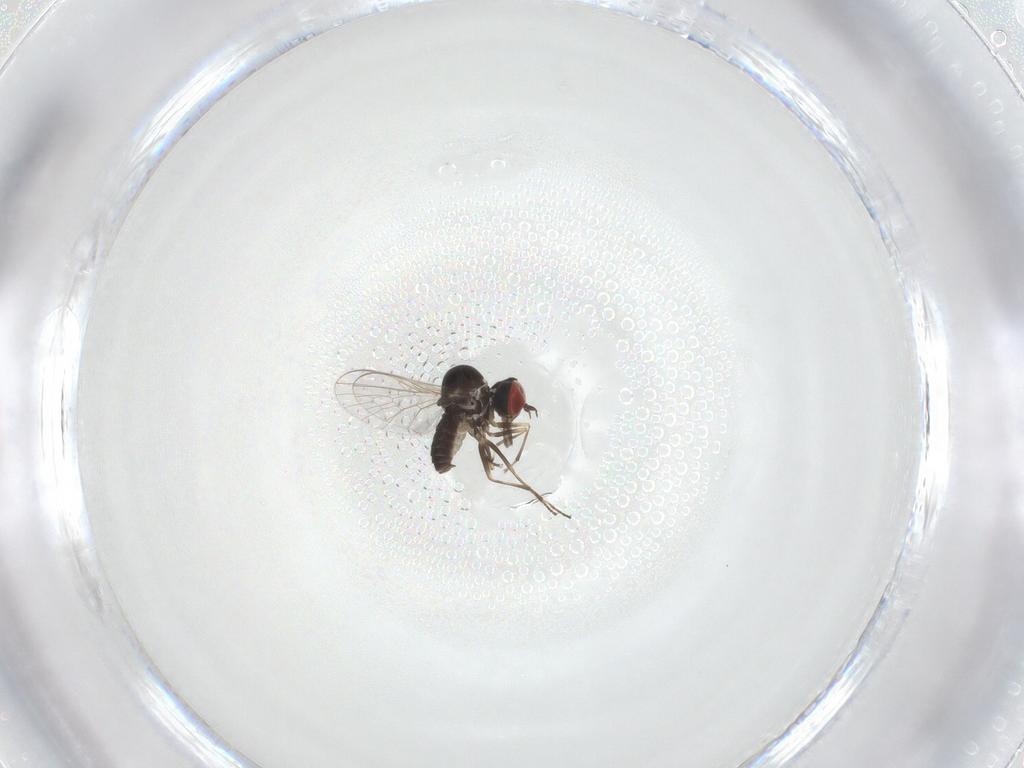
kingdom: Animalia
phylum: Arthropoda
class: Insecta
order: Diptera
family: Mythicomyiidae
